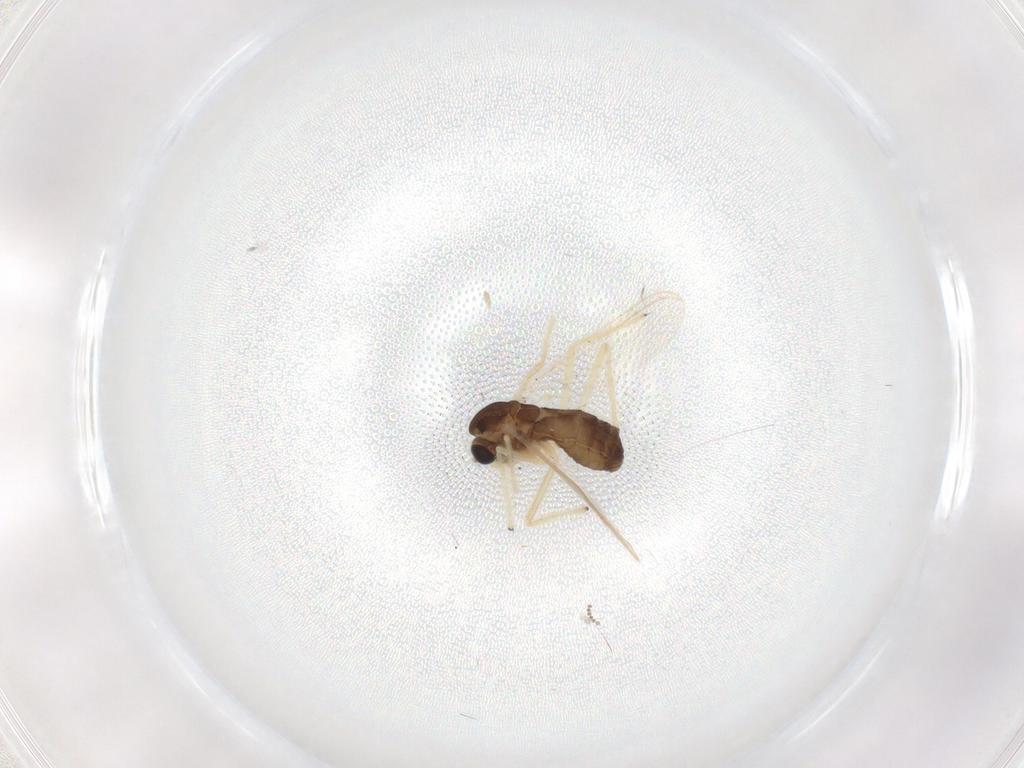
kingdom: Animalia
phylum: Arthropoda
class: Insecta
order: Diptera
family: Chironomidae
